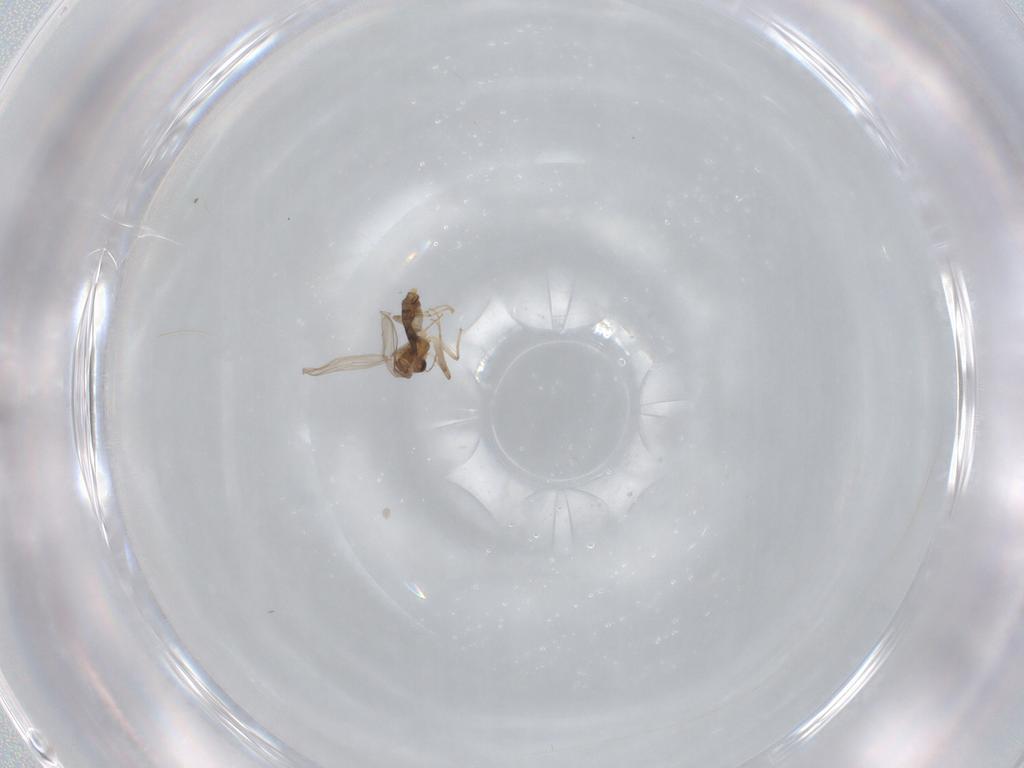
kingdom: Animalia
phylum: Arthropoda
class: Insecta
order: Diptera
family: Chironomidae
